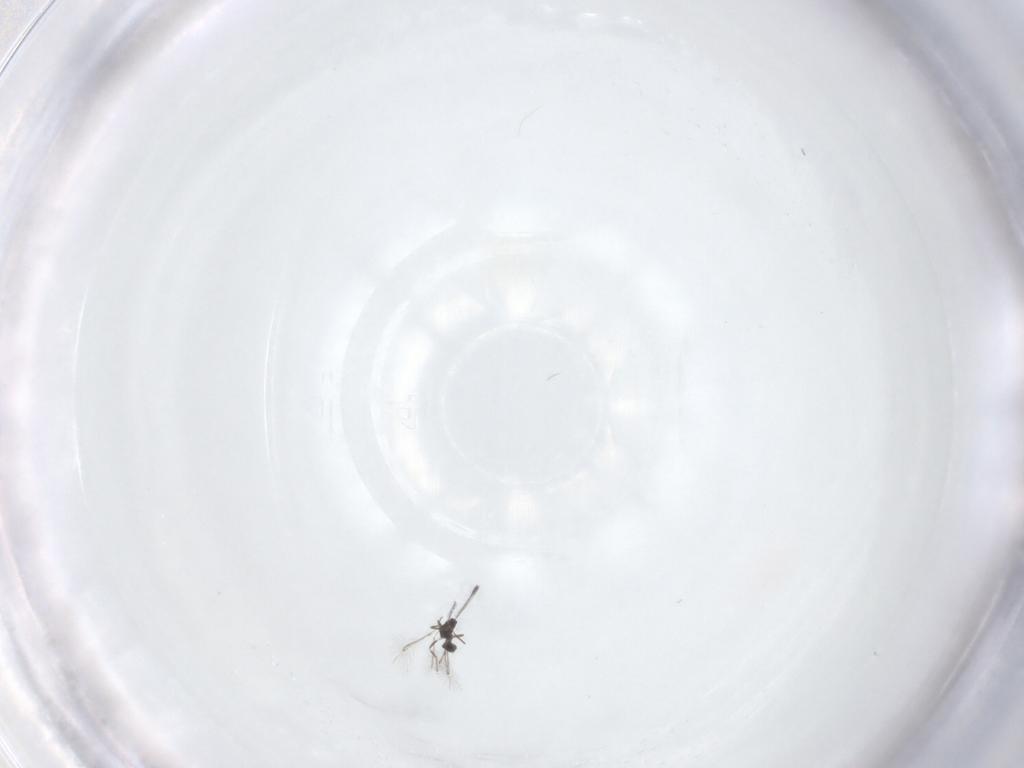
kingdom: Animalia
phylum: Arthropoda
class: Insecta
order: Hymenoptera
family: Mymaridae
